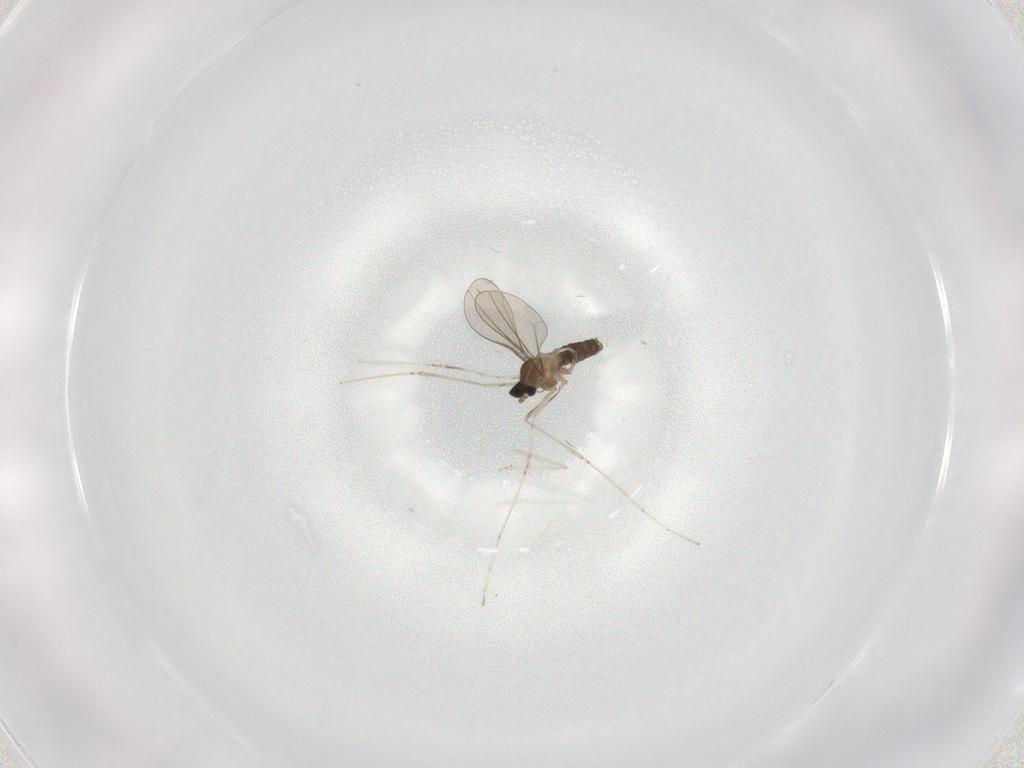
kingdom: Animalia
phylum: Arthropoda
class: Insecta
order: Diptera
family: Cecidomyiidae
